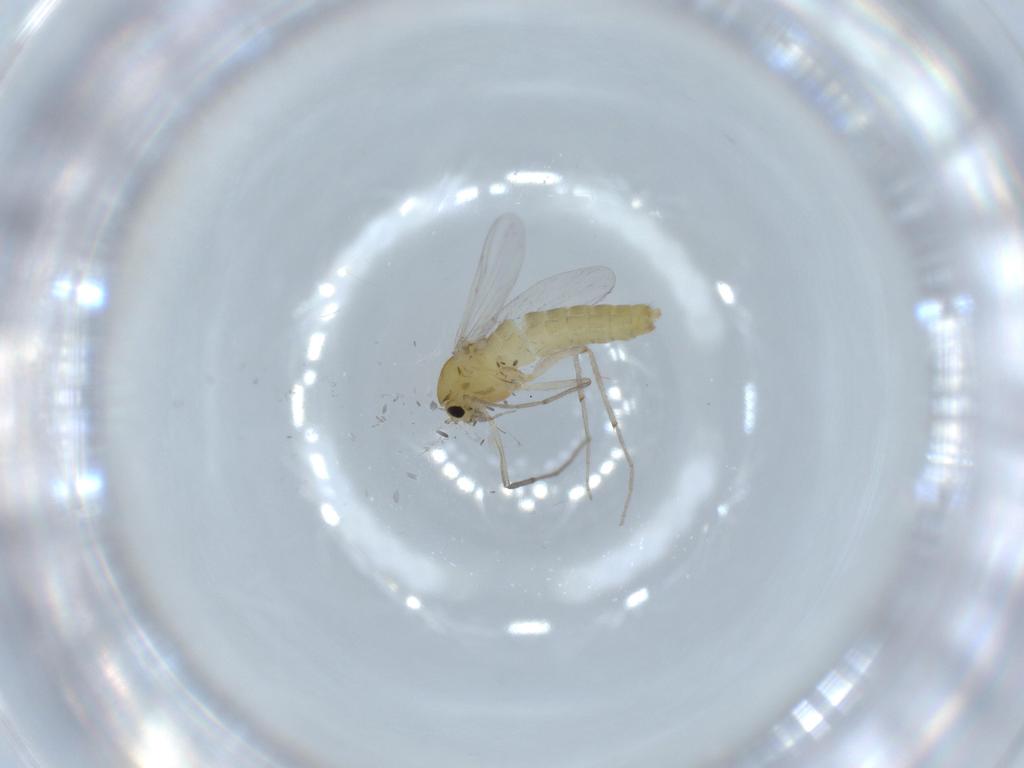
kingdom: Animalia
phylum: Arthropoda
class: Insecta
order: Diptera
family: Chironomidae
